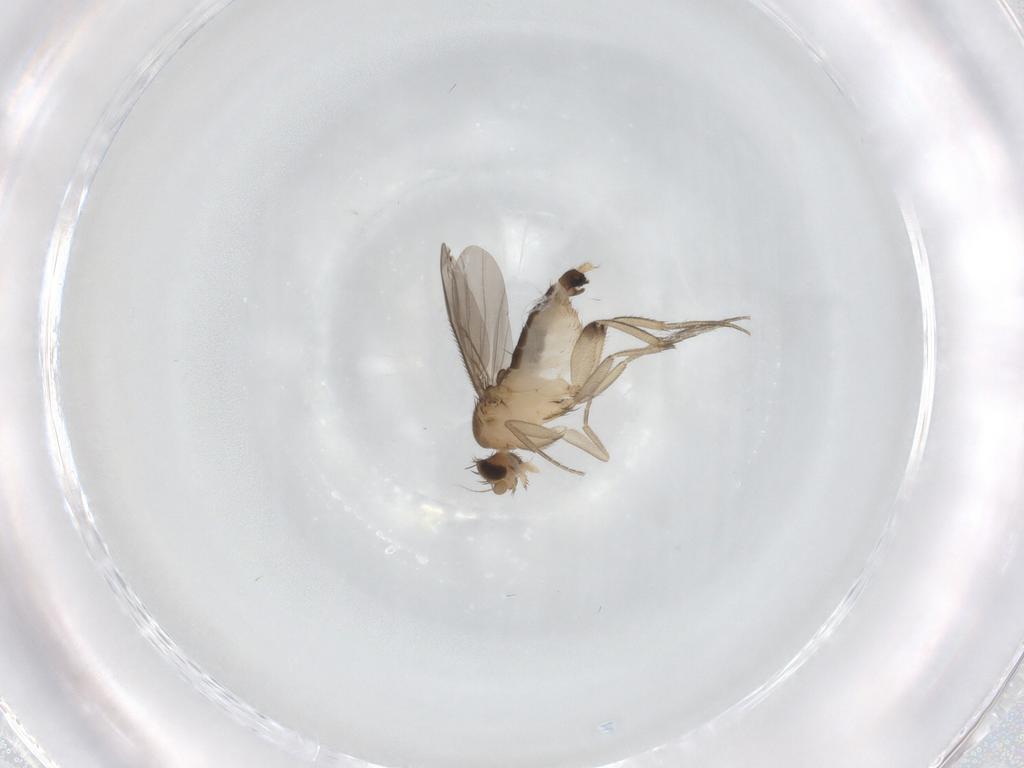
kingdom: Animalia
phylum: Arthropoda
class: Insecta
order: Diptera
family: Phoridae
